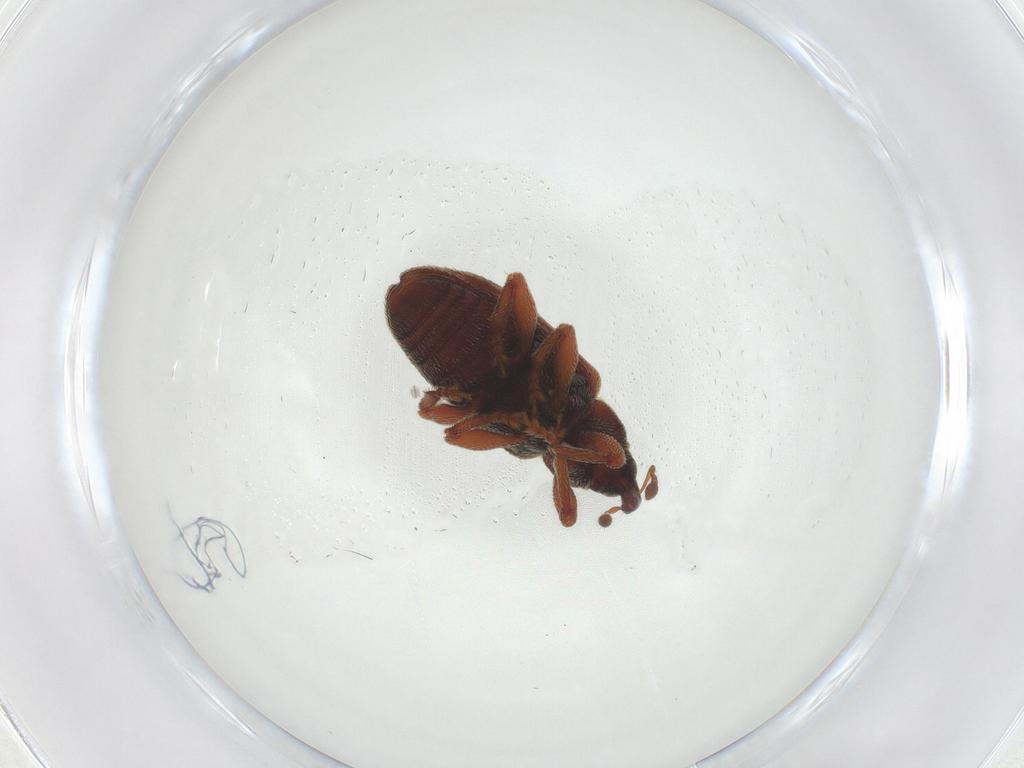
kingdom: Animalia
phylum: Arthropoda
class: Insecta
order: Coleoptera
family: Curculionidae
